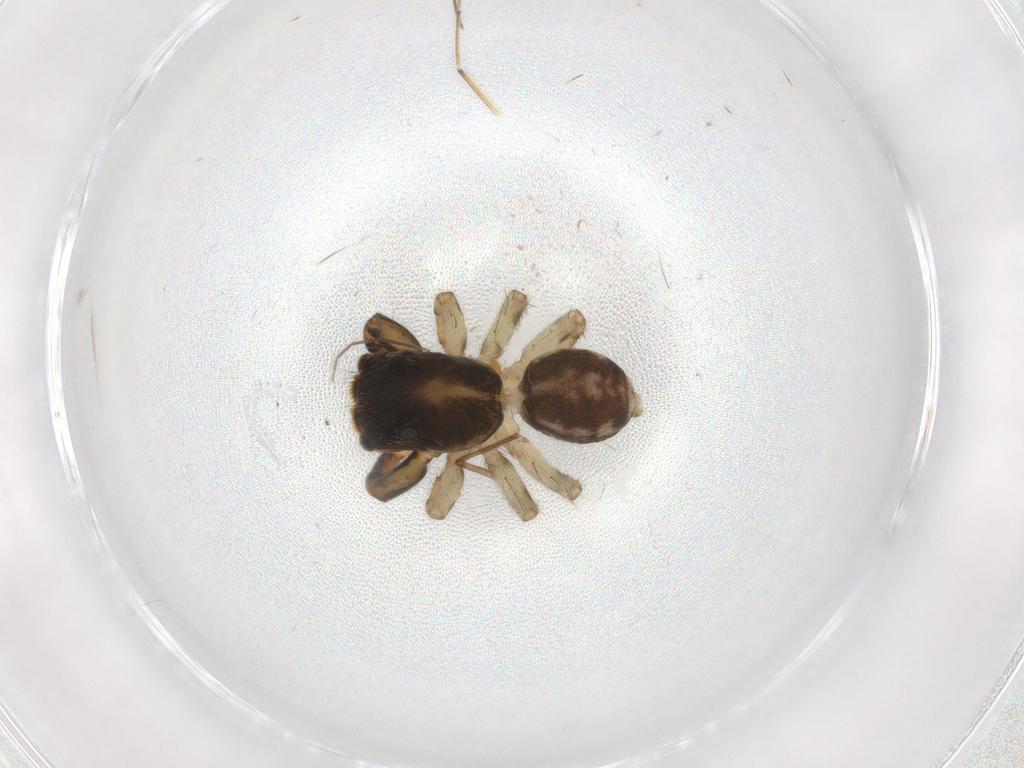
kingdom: Animalia
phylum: Arthropoda
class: Arachnida
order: Araneae
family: Salticidae
